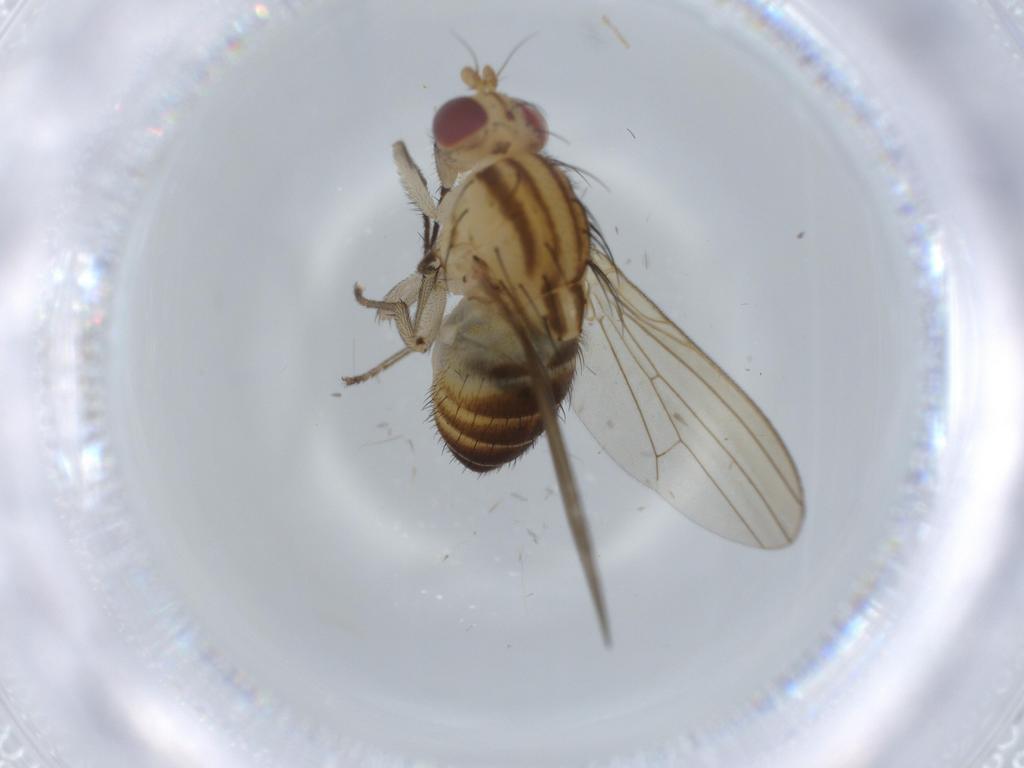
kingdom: Animalia
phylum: Arthropoda
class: Insecta
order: Diptera
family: Lauxaniidae
